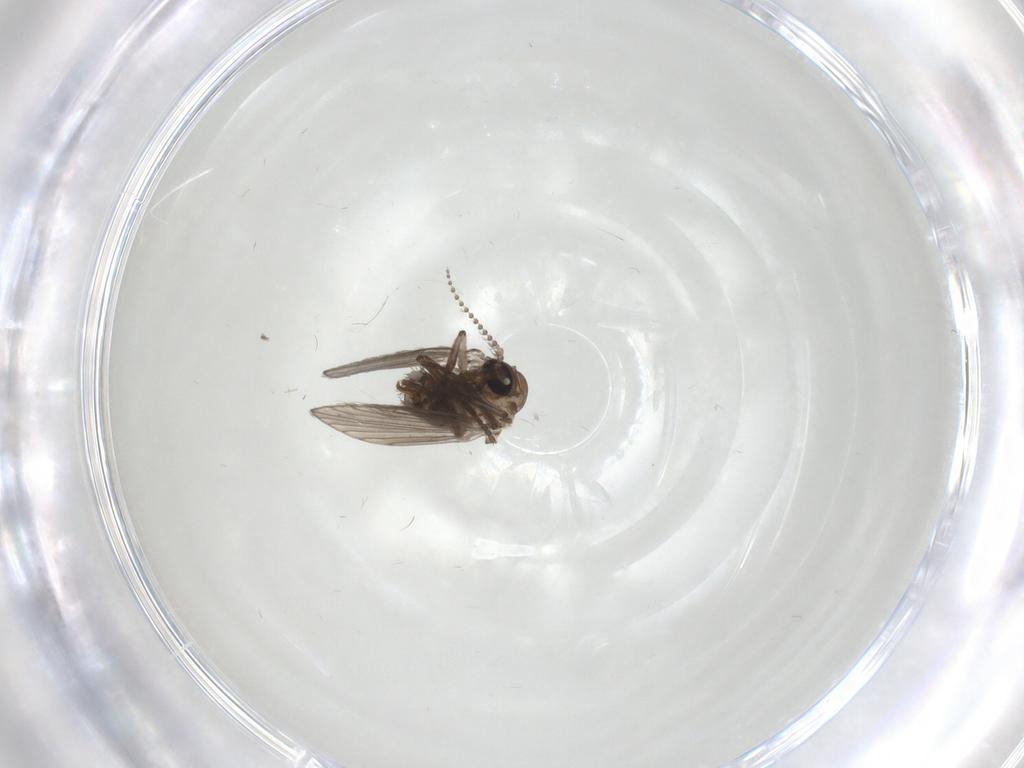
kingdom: Animalia
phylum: Arthropoda
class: Insecta
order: Diptera
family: Psychodidae
